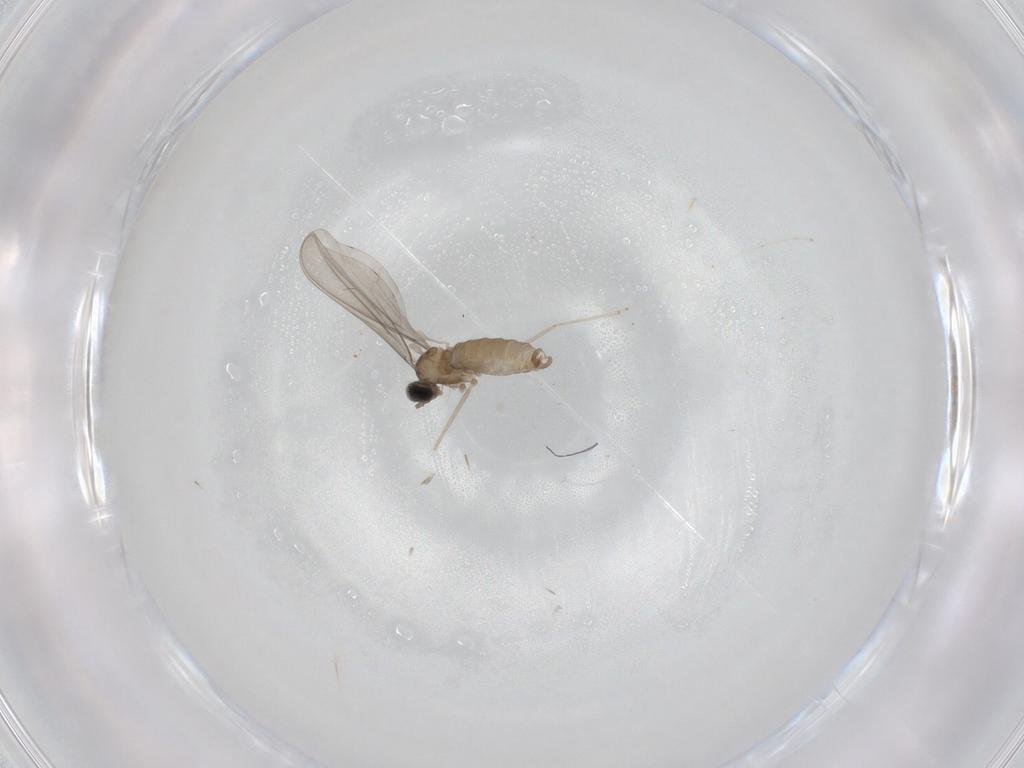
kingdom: Animalia
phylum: Arthropoda
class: Insecta
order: Diptera
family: Cecidomyiidae
